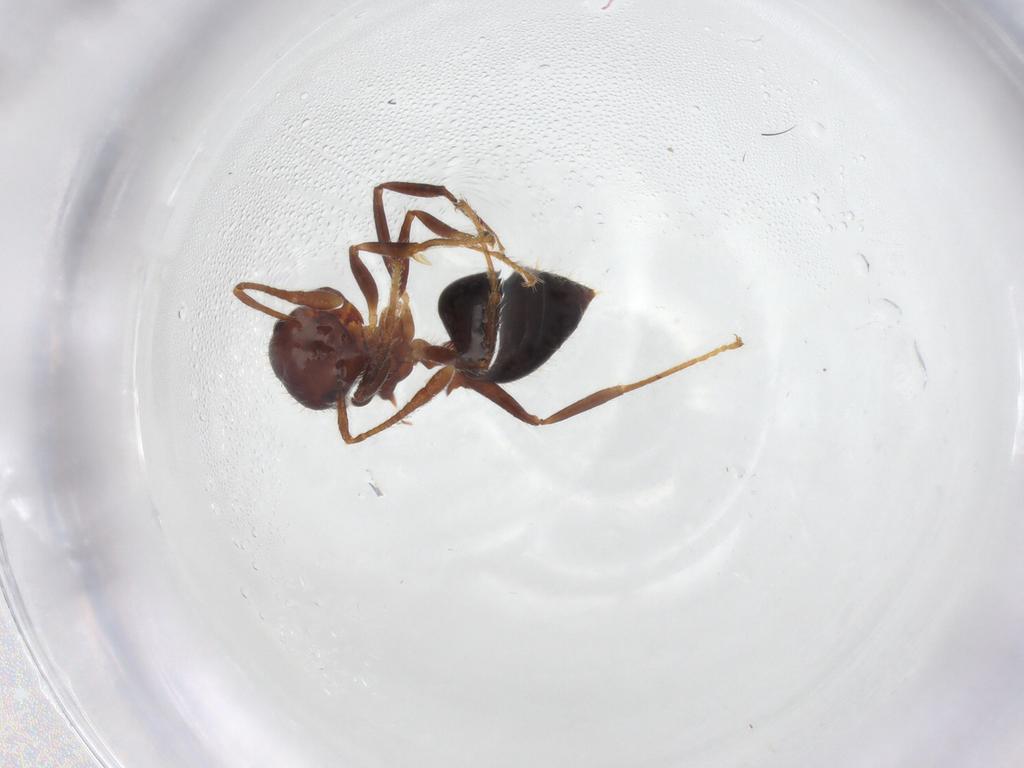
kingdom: Animalia
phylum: Arthropoda
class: Insecta
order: Hymenoptera
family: Formicidae
